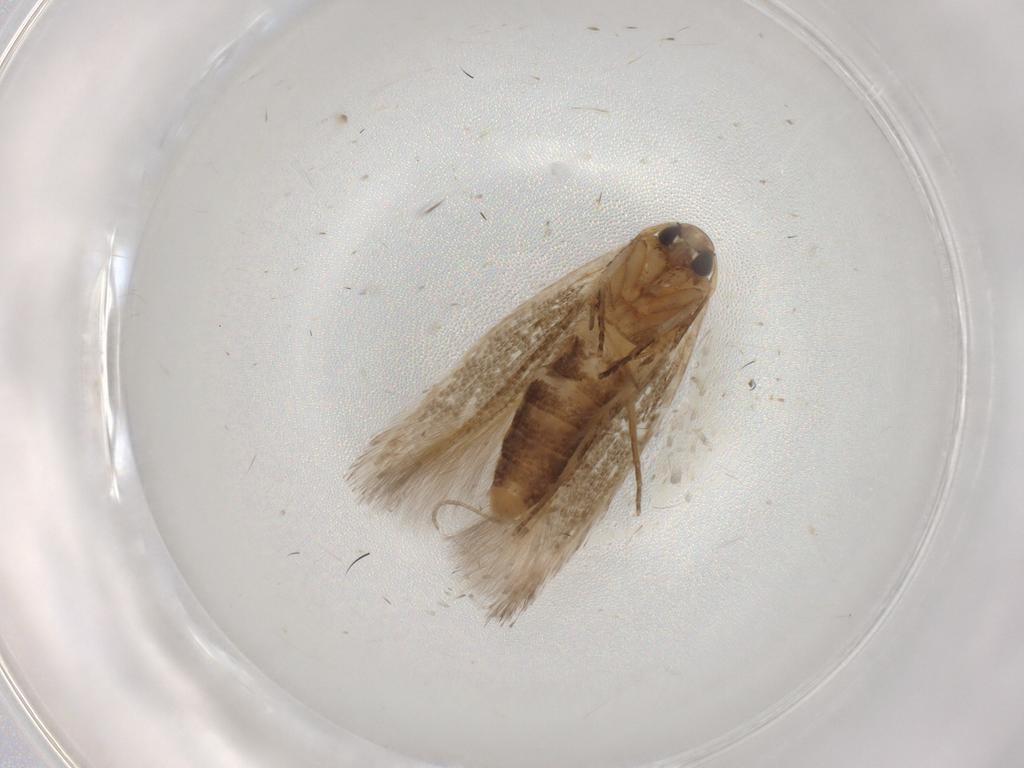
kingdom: Animalia
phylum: Arthropoda
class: Insecta
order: Lepidoptera
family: Cosmopterigidae
